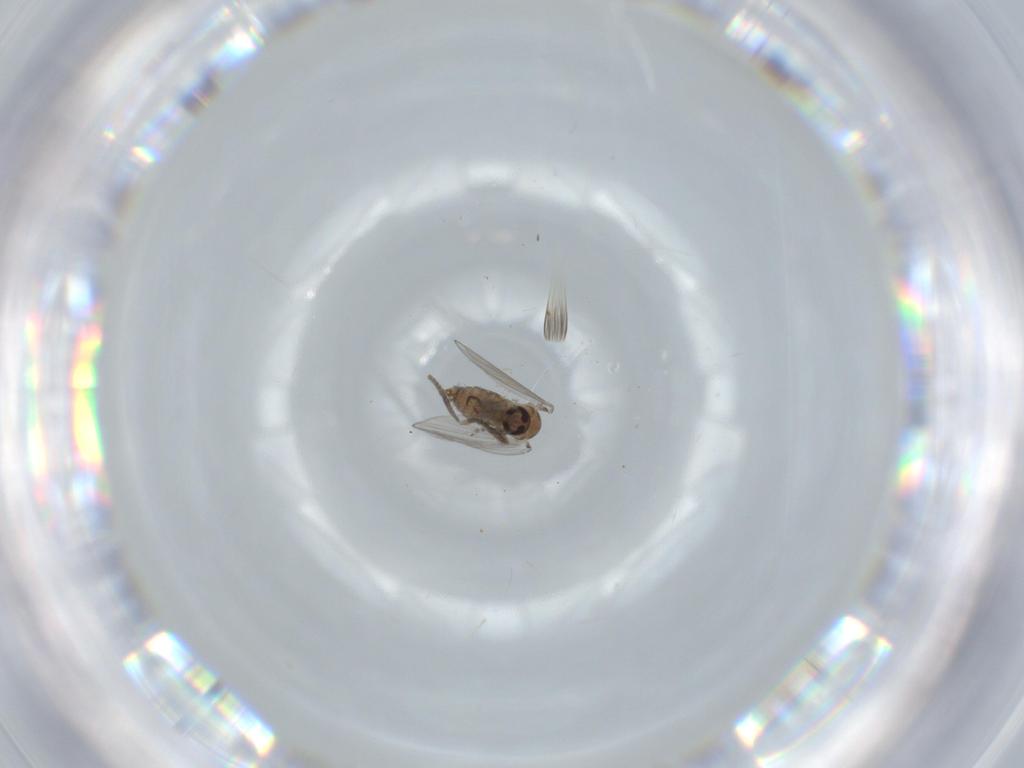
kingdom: Animalia
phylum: Arthropoda
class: Insecta
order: Diptera
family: Psychodidae
